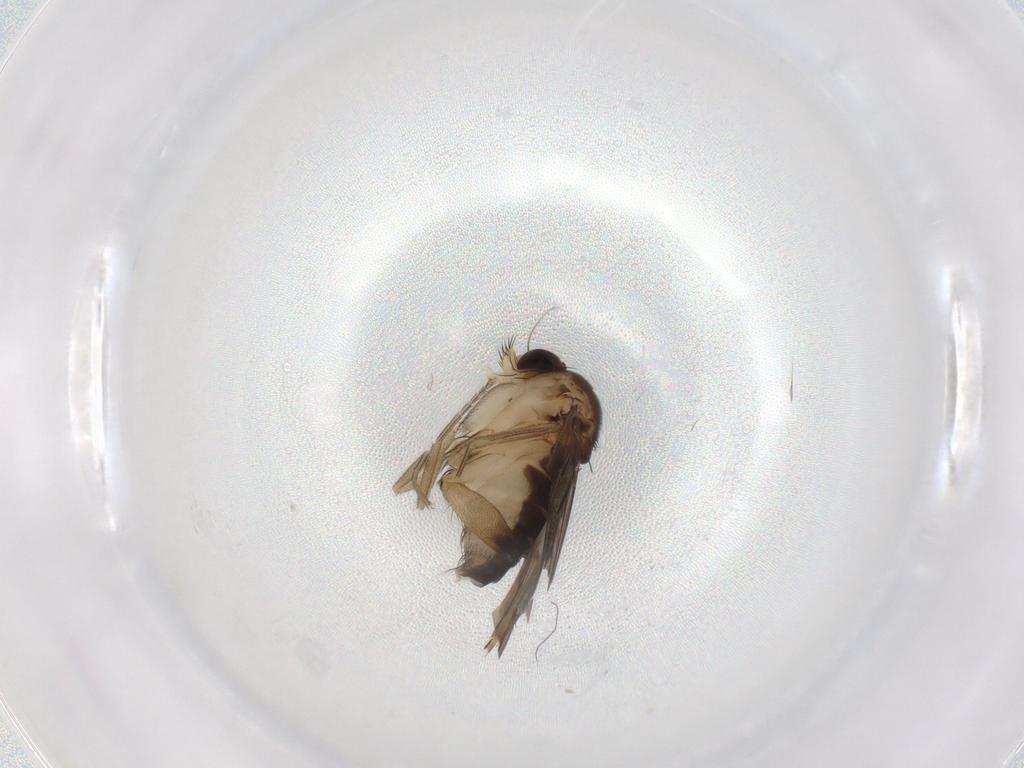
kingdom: Animalia
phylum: Arthropoda
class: Insecta
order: Diptera
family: Phoridae
